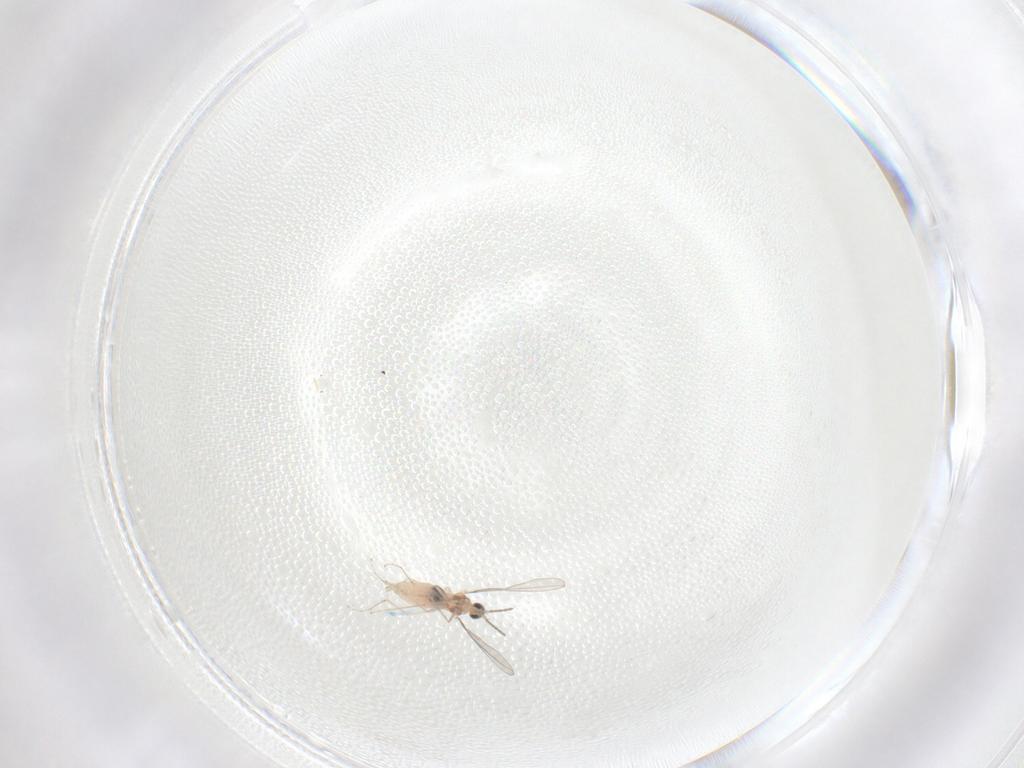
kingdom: Animalia
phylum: Arthropoda
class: Insecta
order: Diptera
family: Cecidomyiidae
